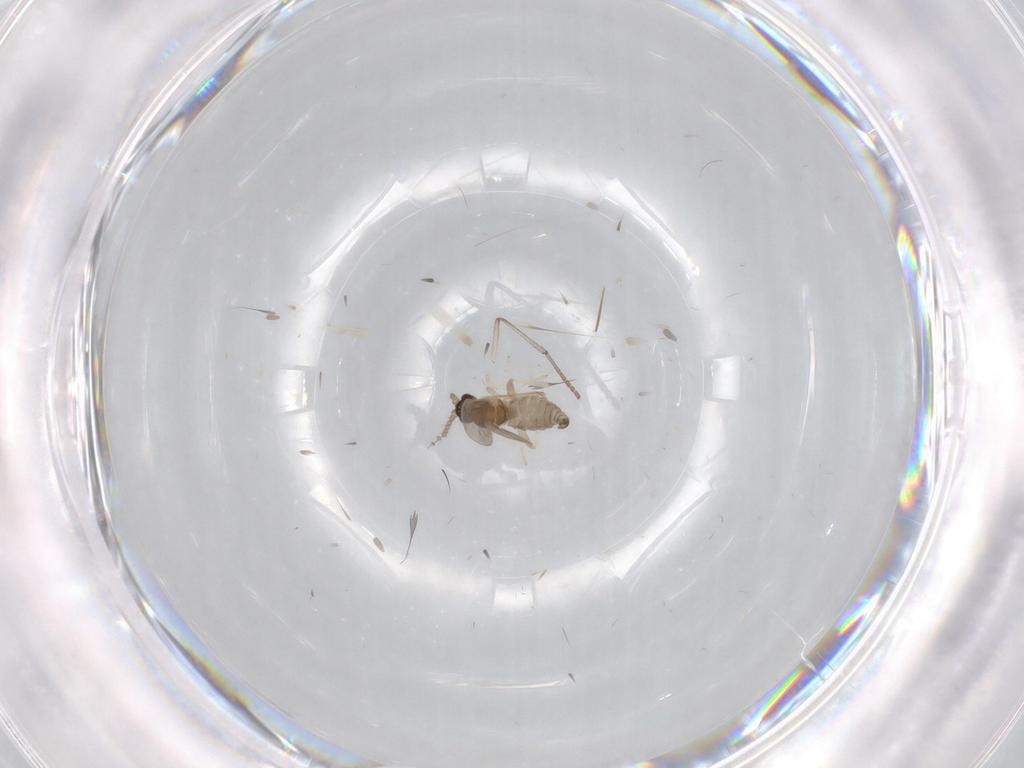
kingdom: Animalia
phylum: Arthropoda
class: Insecta
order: Diptera
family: Cecidomyiidae
